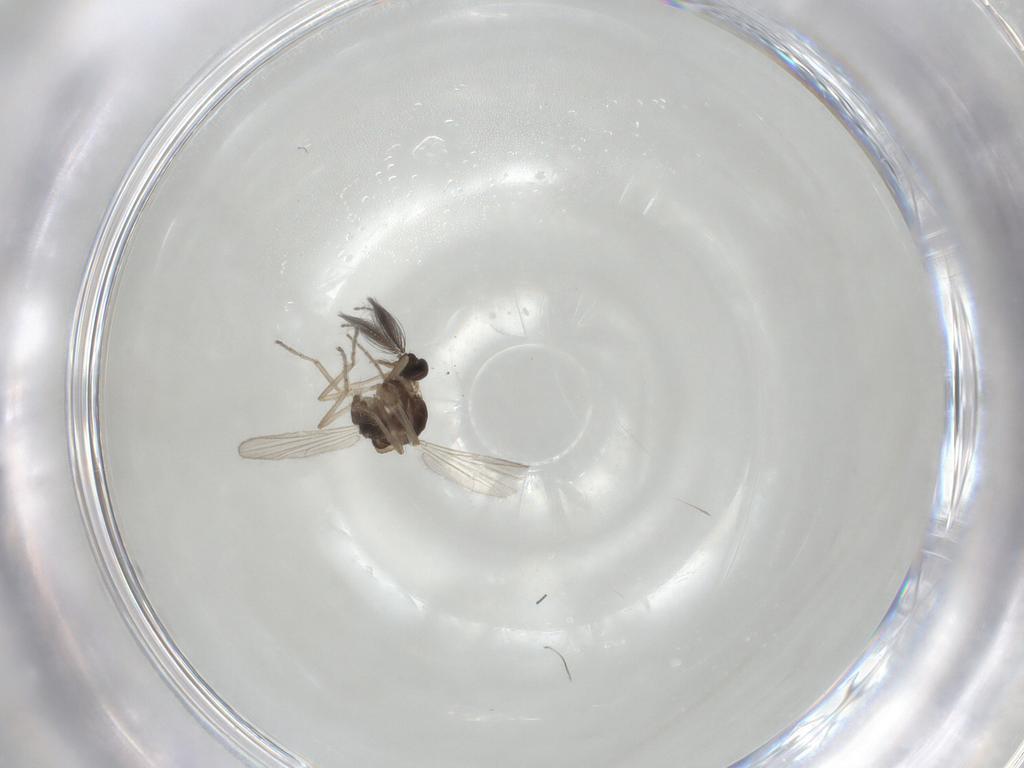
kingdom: Animalia
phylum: Arthropoda
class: Insecta
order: Diptera
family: Ceratopogonidae
